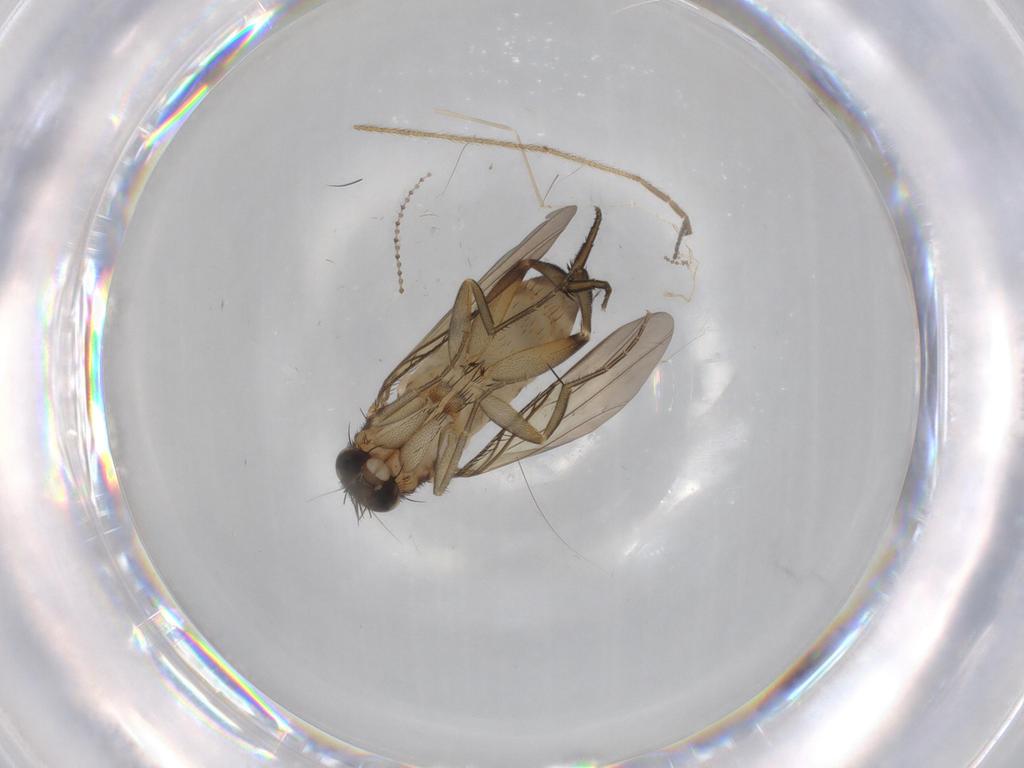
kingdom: Animalia
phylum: Arthropoda
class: Insecta
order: Diptera
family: Phoridae
